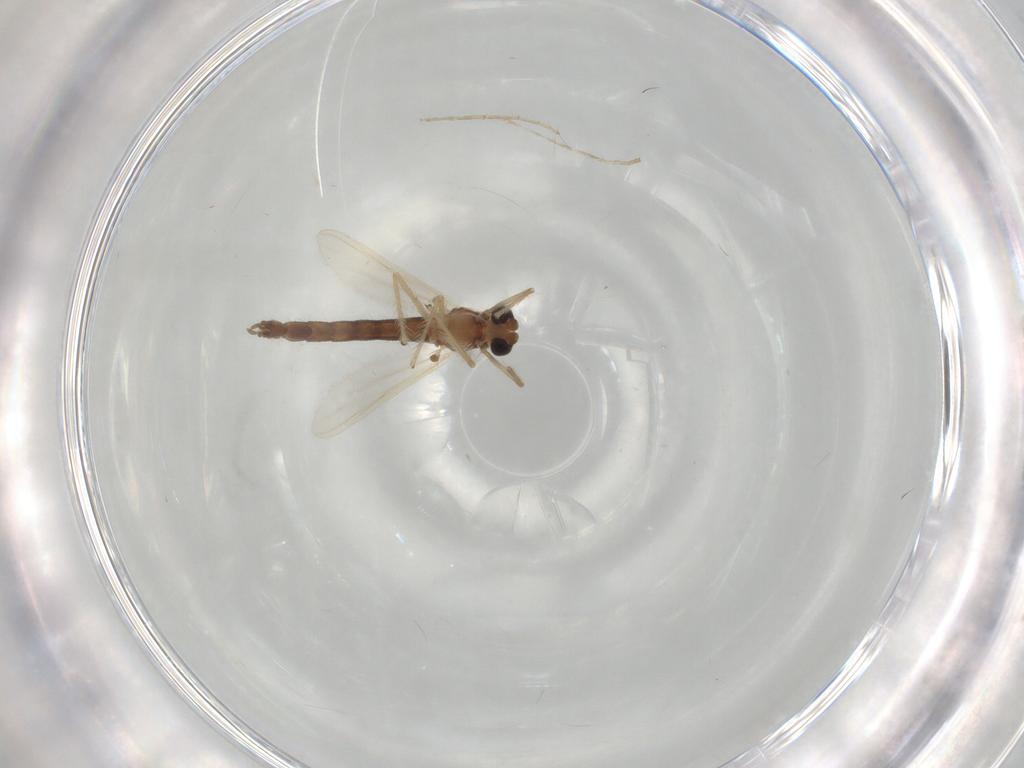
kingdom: Animalia
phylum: Arthropoda
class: Insecta
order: Diptera
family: Chironomidae
